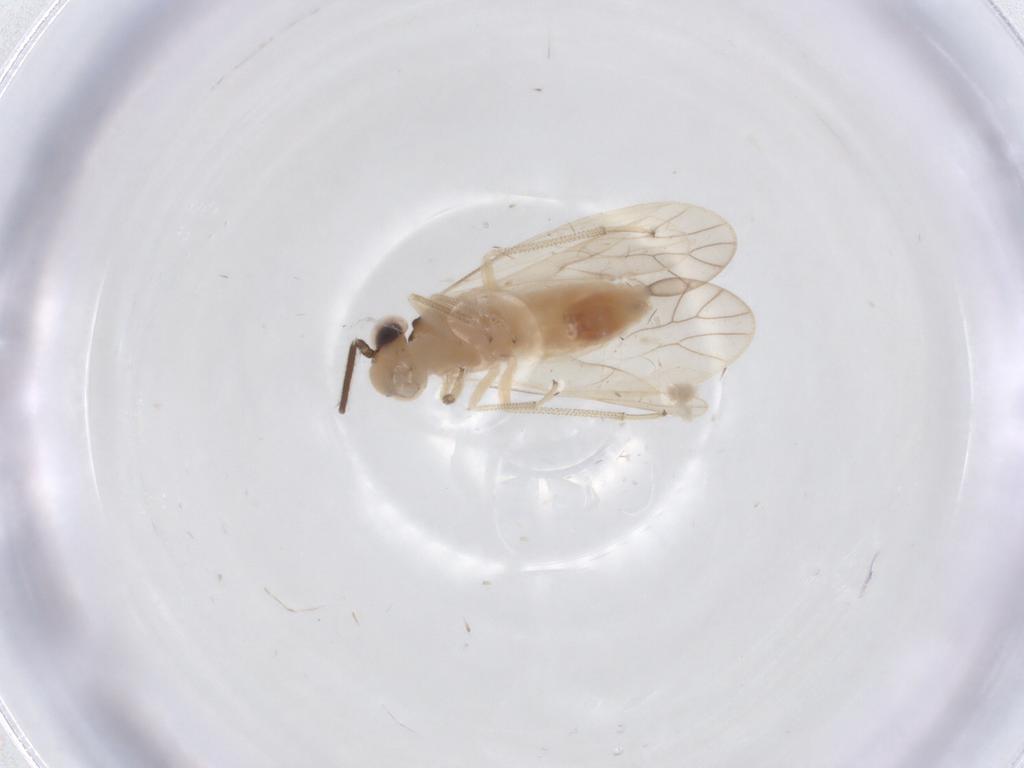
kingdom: Animalia
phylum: Arthropoda
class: Insecta
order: Psocodea
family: Caeciliusidae
